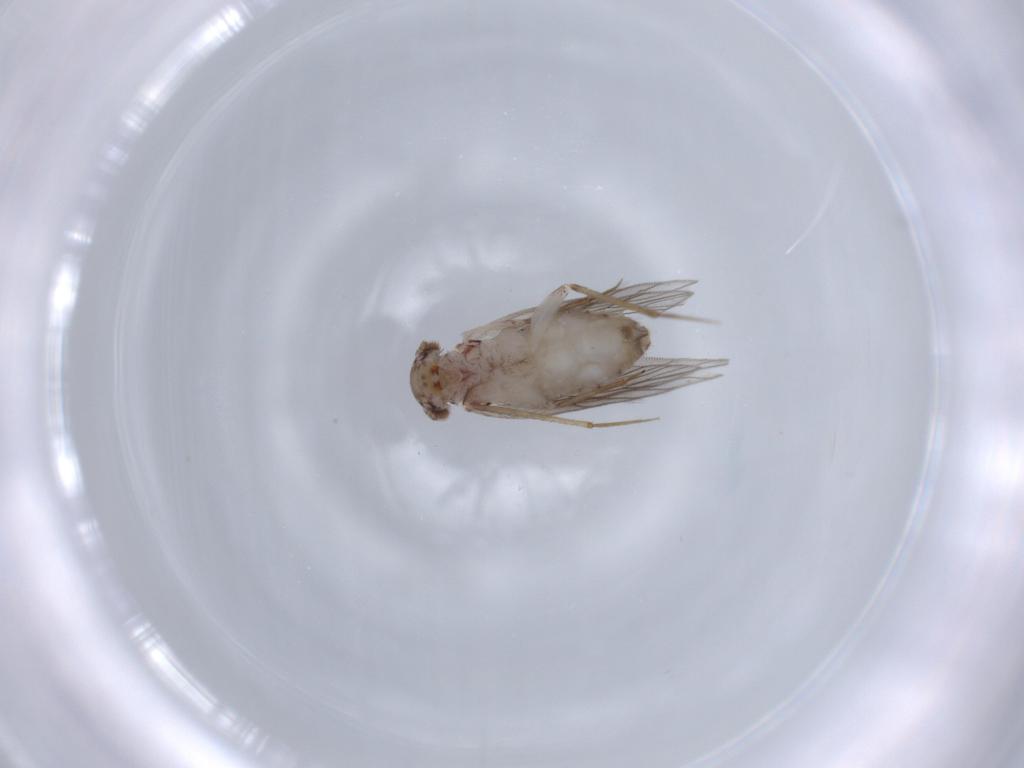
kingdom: Animalia
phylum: Arthropoda
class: Insecta
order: Psocodea
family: Lepidopsocidae
